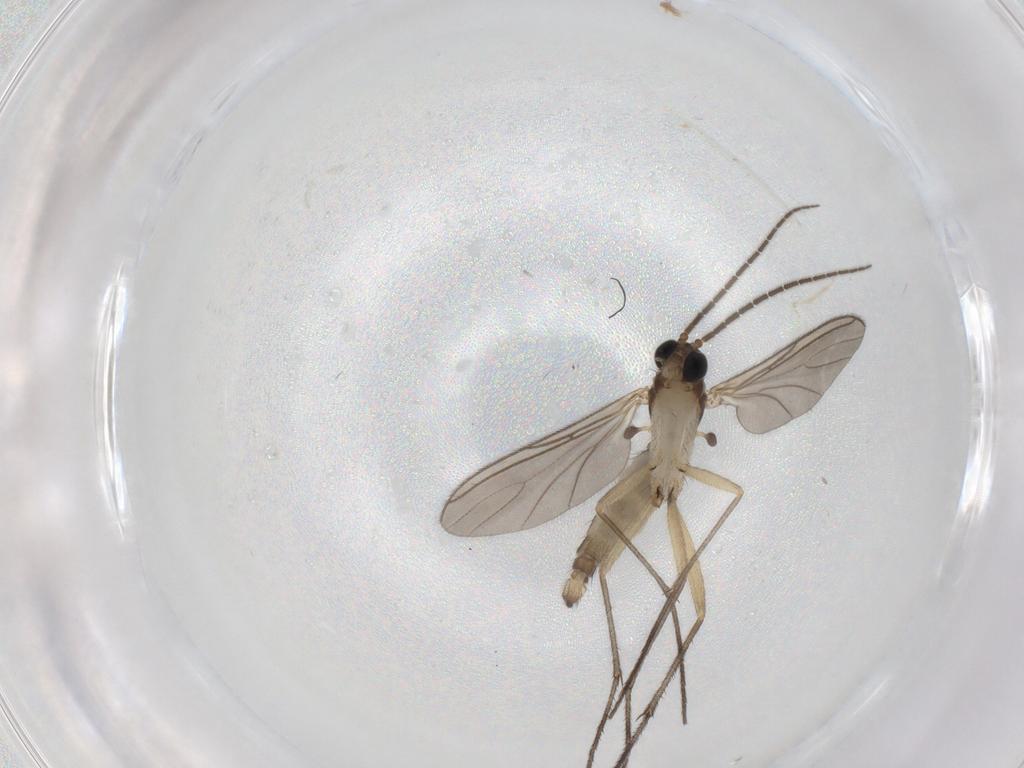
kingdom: Animalia
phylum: Arthropoda
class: Insecta
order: Diptera
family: Sciaridae
